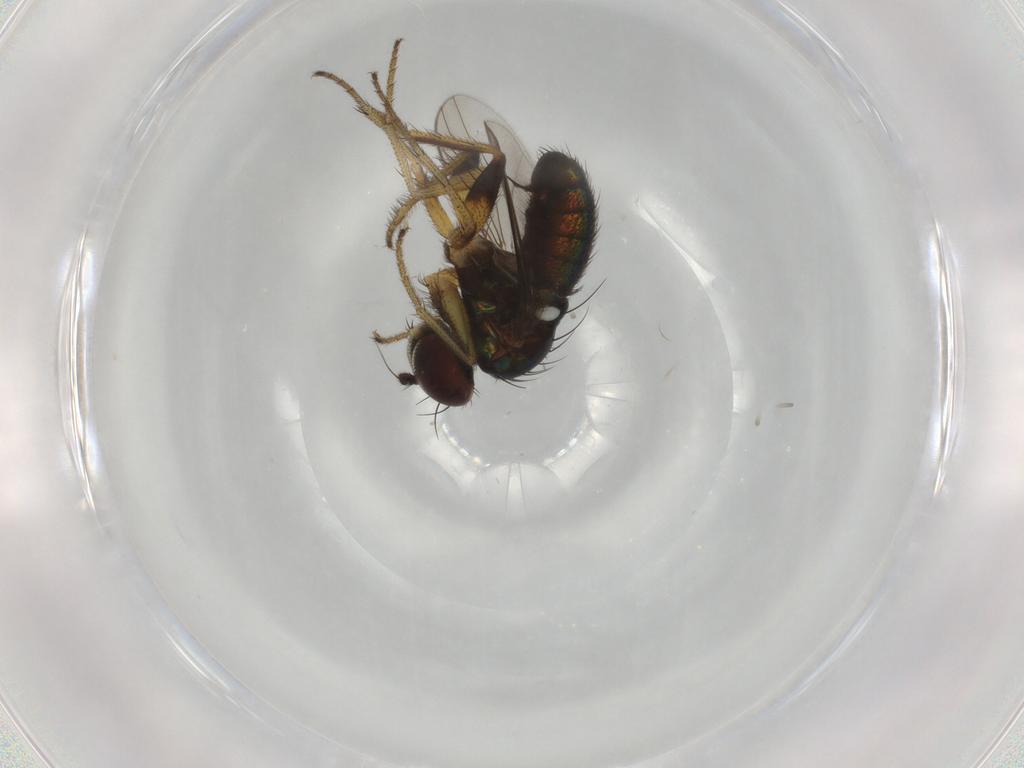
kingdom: Animalia
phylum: Arthropoda
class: Insecta
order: Diptera
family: Dolichopodidae
